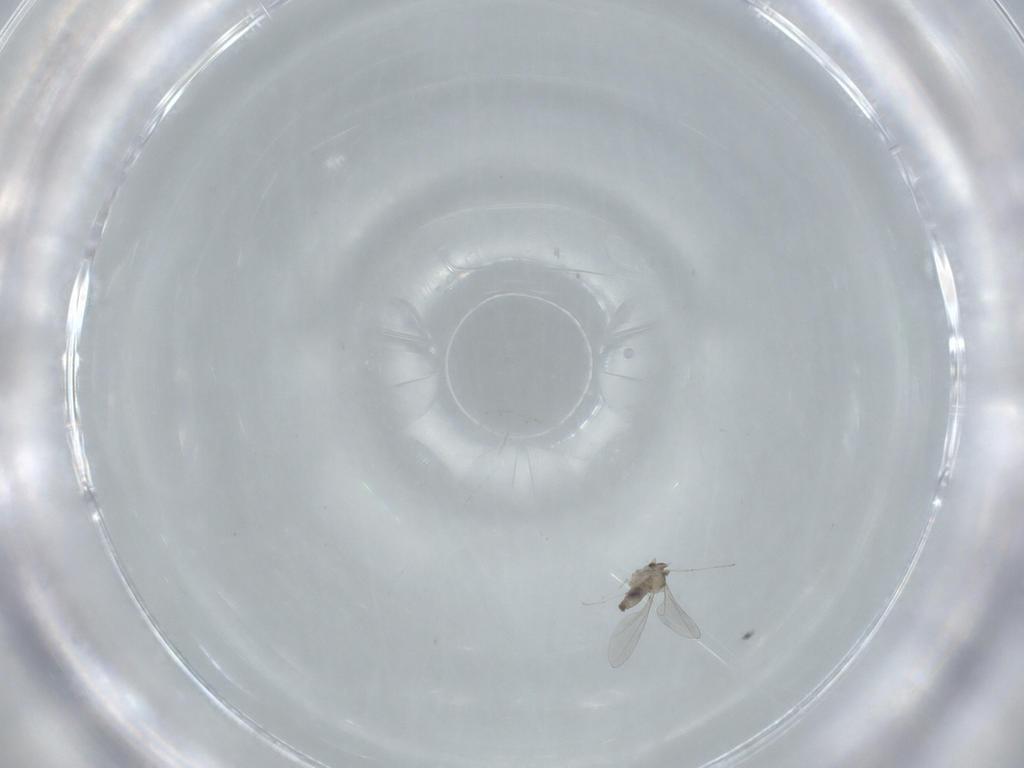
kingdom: Animalia
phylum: Arthropoda
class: Insecta
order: Diptera
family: Cecidomyiidae
